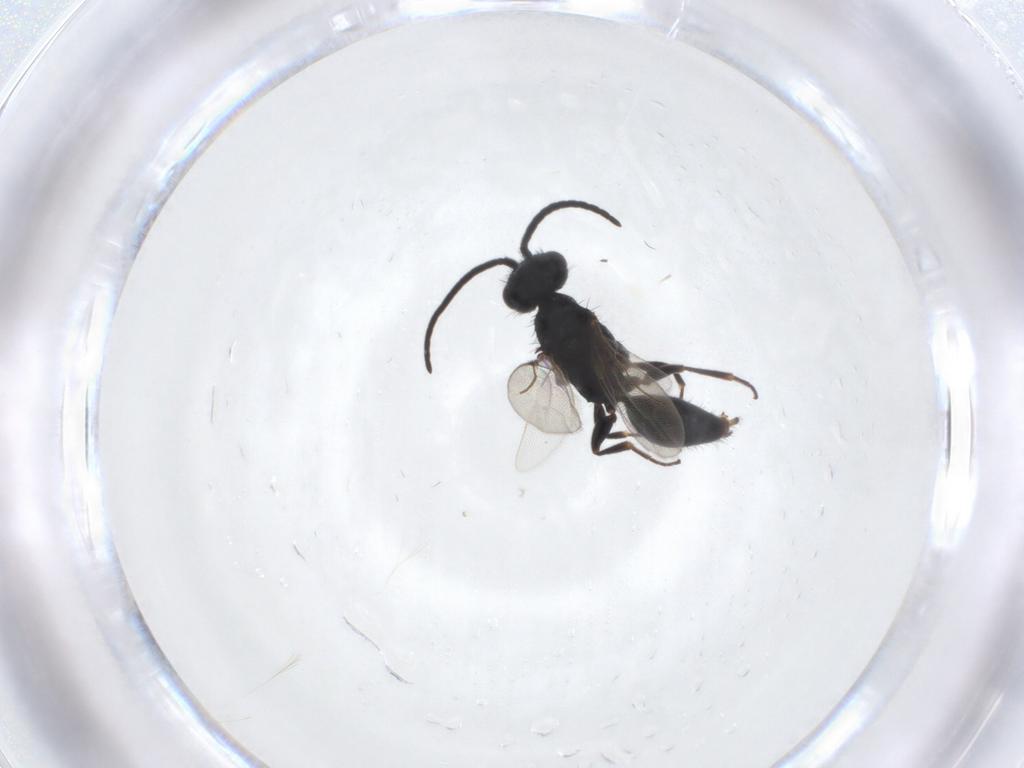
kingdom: Animalia
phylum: Arthropoda
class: Insecta
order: Hymenoptera
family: Bethylidae
